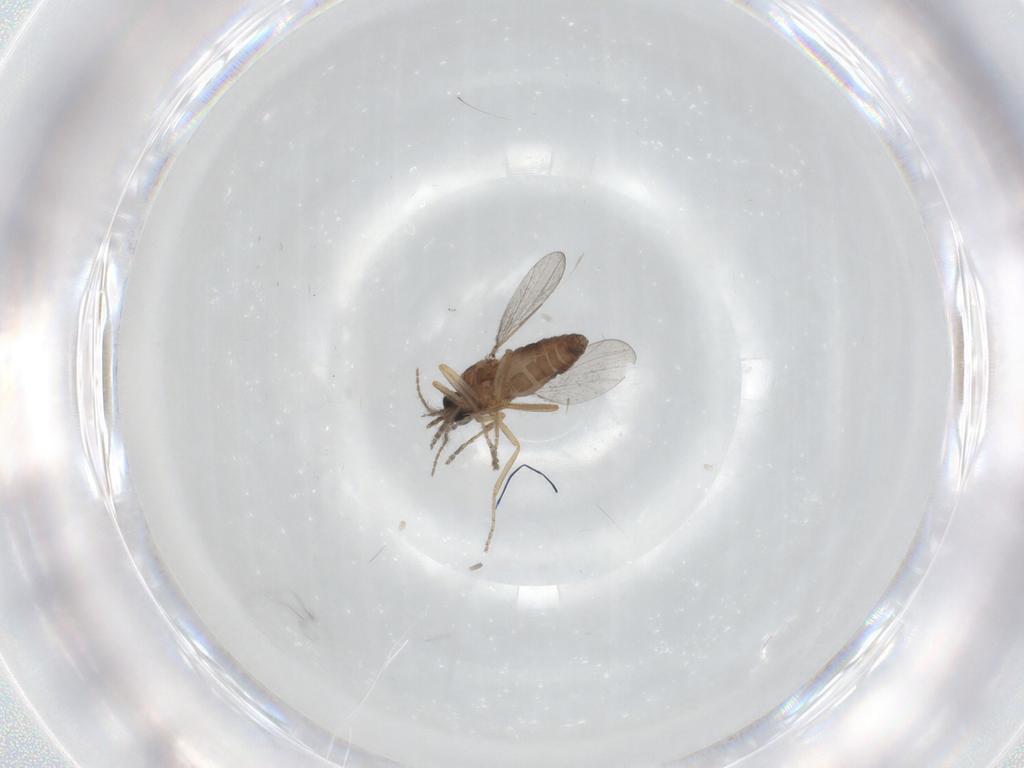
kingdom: Animalia
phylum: Arthropoda
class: Insecta
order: Diptera
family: Ceratopogonidae
